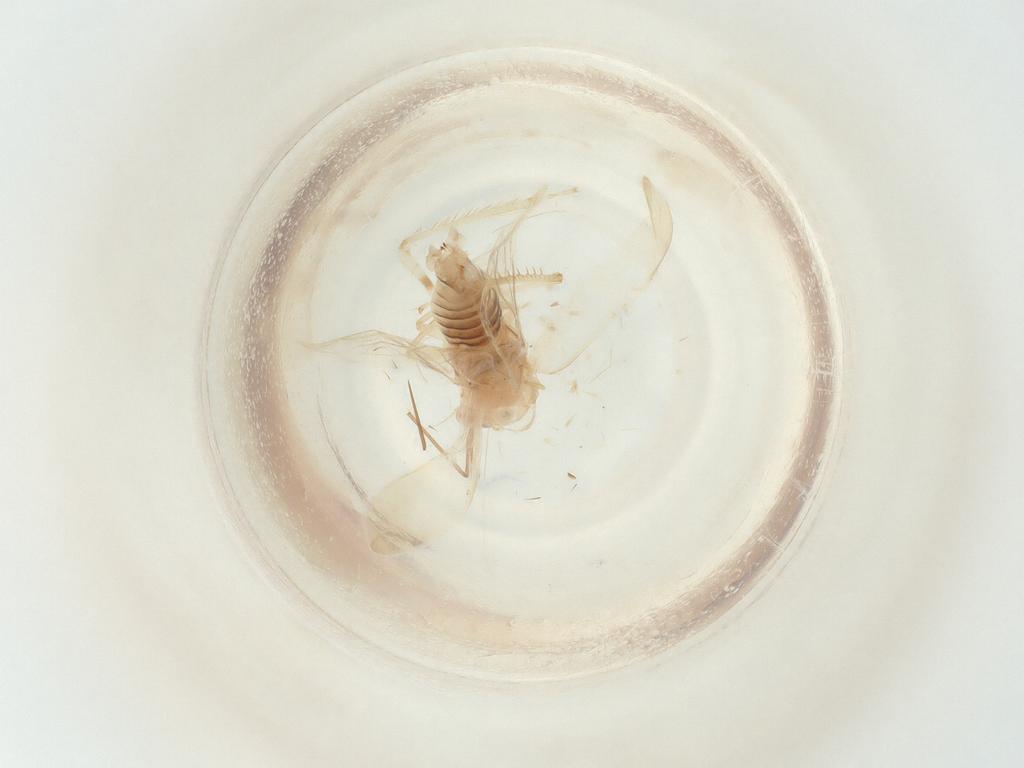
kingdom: Animalia
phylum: Arthropoda
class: Insecta
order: Hemiptera
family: Cicadellidae
